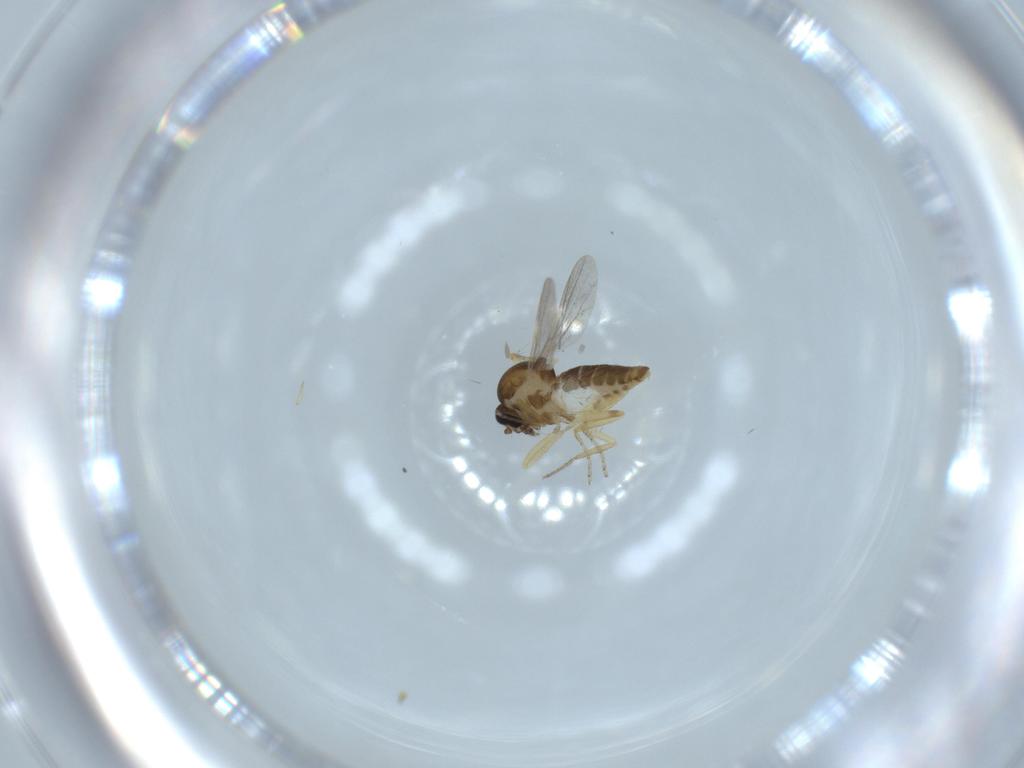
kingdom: Animalia
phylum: Arthropoda
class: Insecta
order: Diptera
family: Ceratopogonidae
